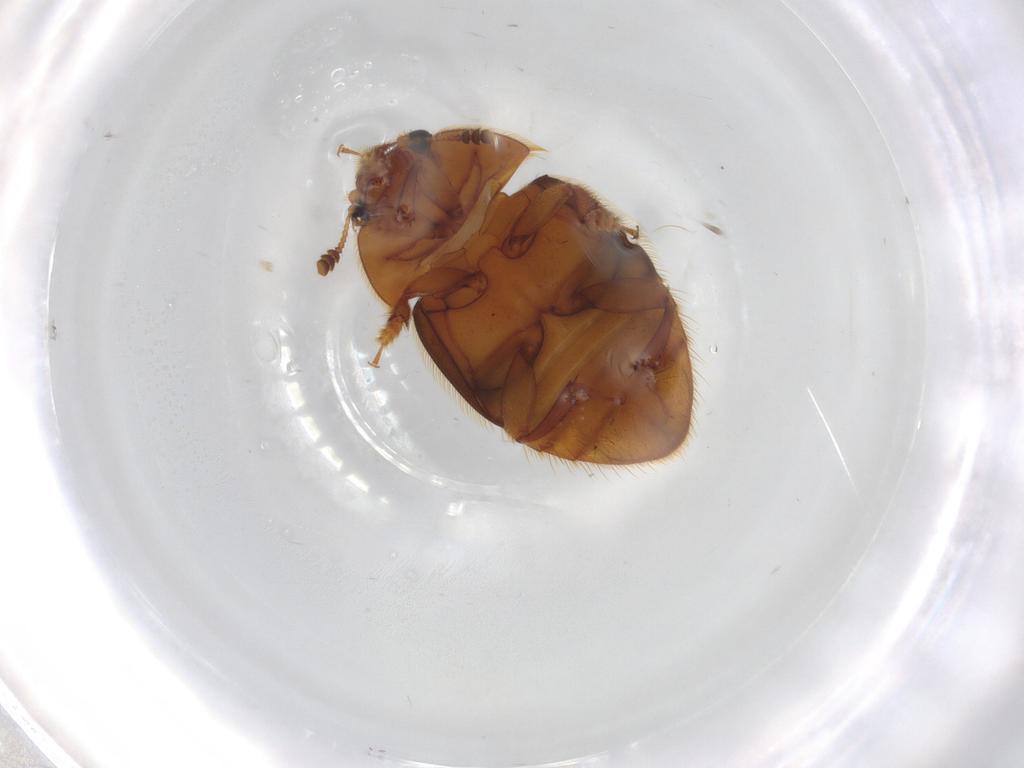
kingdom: Animalia
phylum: Arthropoda
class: Insecta
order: Coleoptera
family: Nitidulidae
